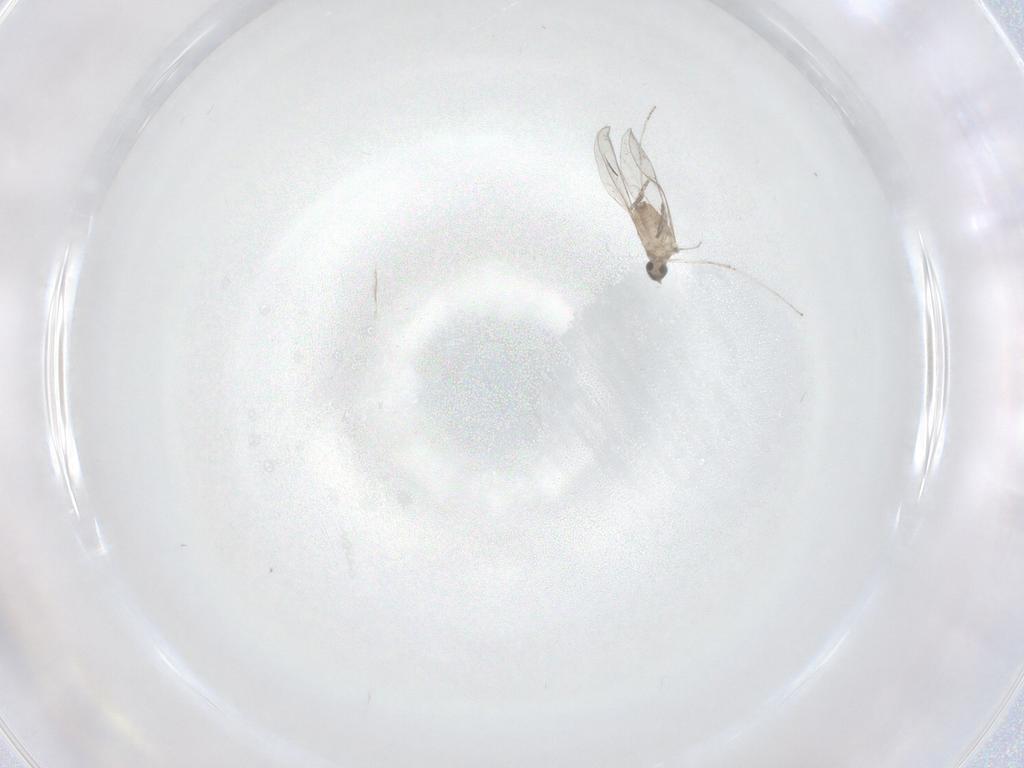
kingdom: Animalia
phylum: Arthropoda
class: Insecta
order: Diptera
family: Cecidomyiidae
